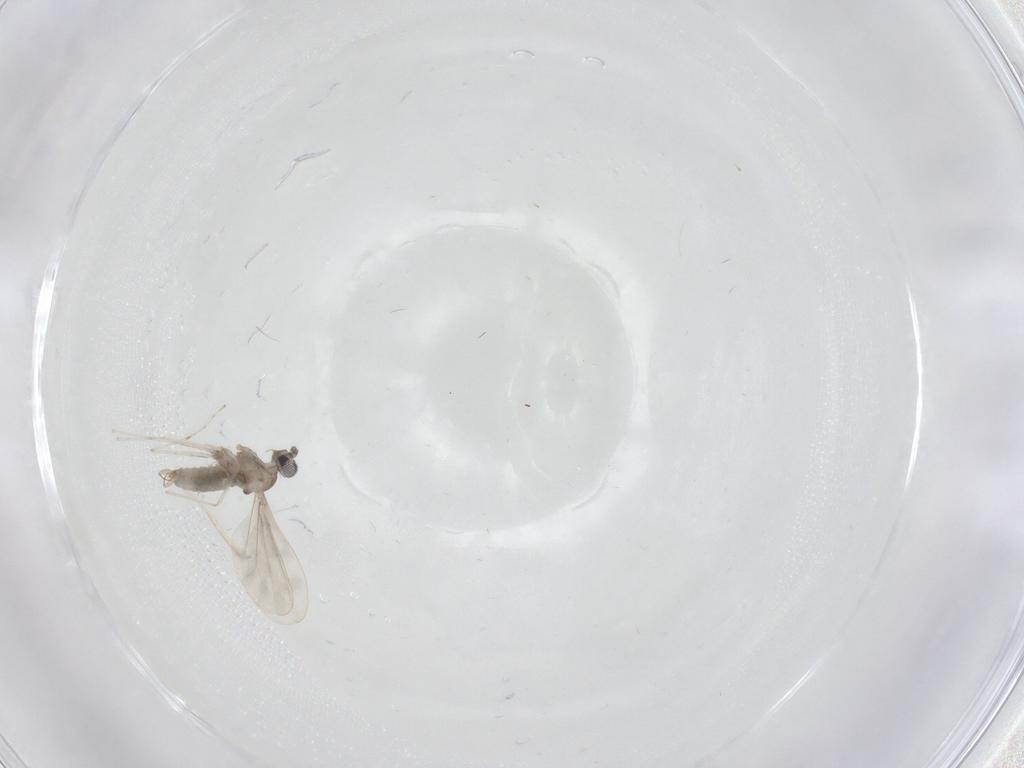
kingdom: Animalia
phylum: Arthropoda
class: Insecta
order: Diptera
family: Cecidomyiidae
